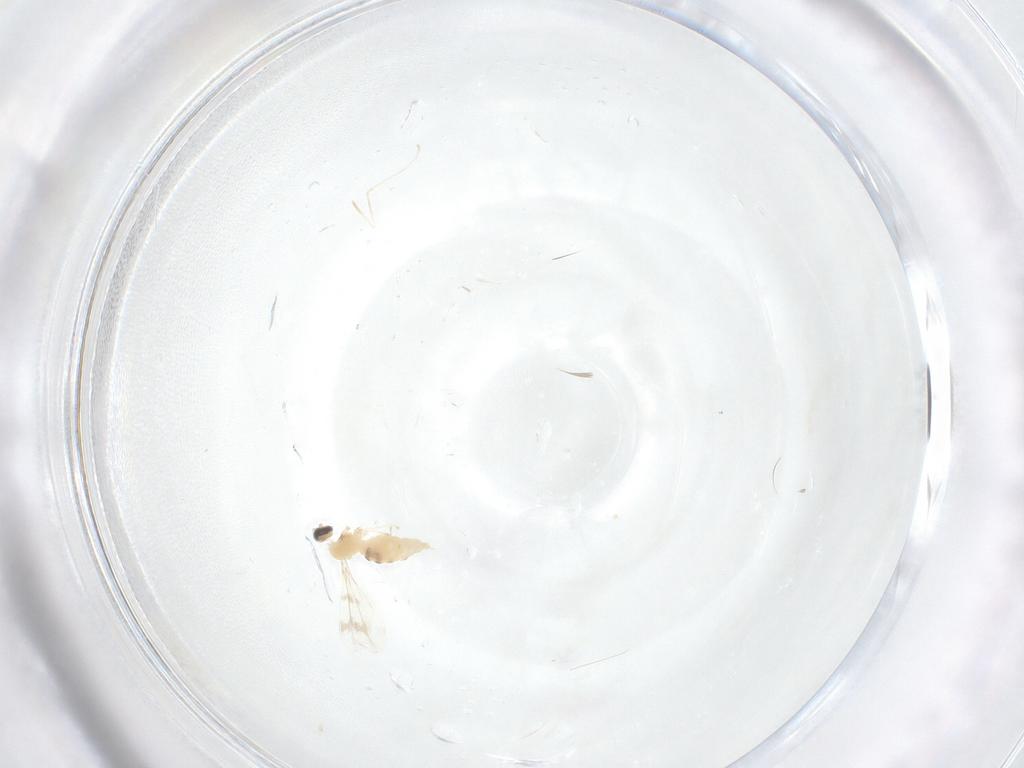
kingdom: Animalia
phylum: Arthropoda
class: Insecta
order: Diptera
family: Cecidomyiidae
